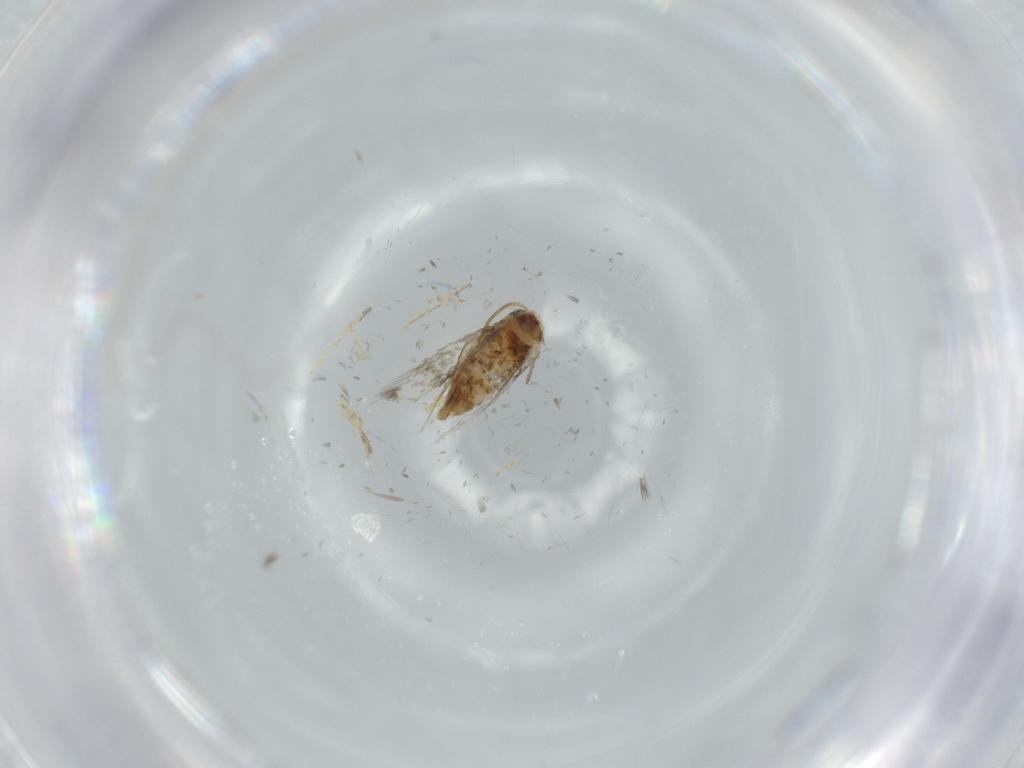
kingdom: Animalia
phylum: Arthropoda
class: Insecta
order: Lepidoptera
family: Nepticulidae
